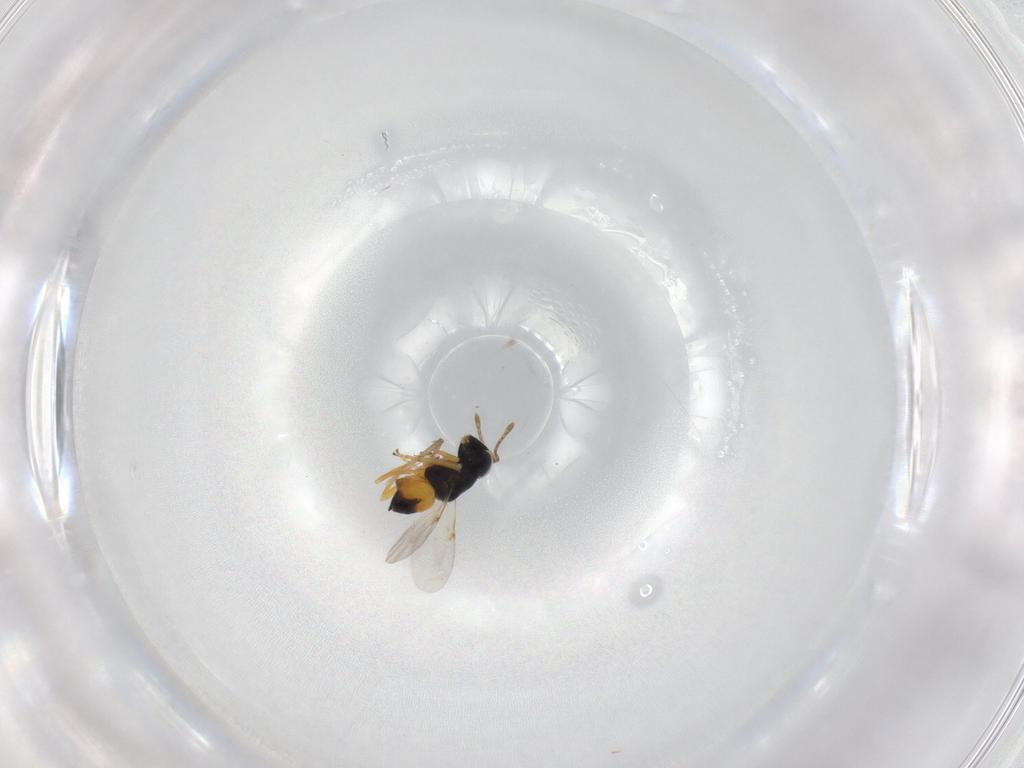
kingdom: Animalia
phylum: Arthropoda
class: Insecta
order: Hymenoptera
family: Encyrtidae
